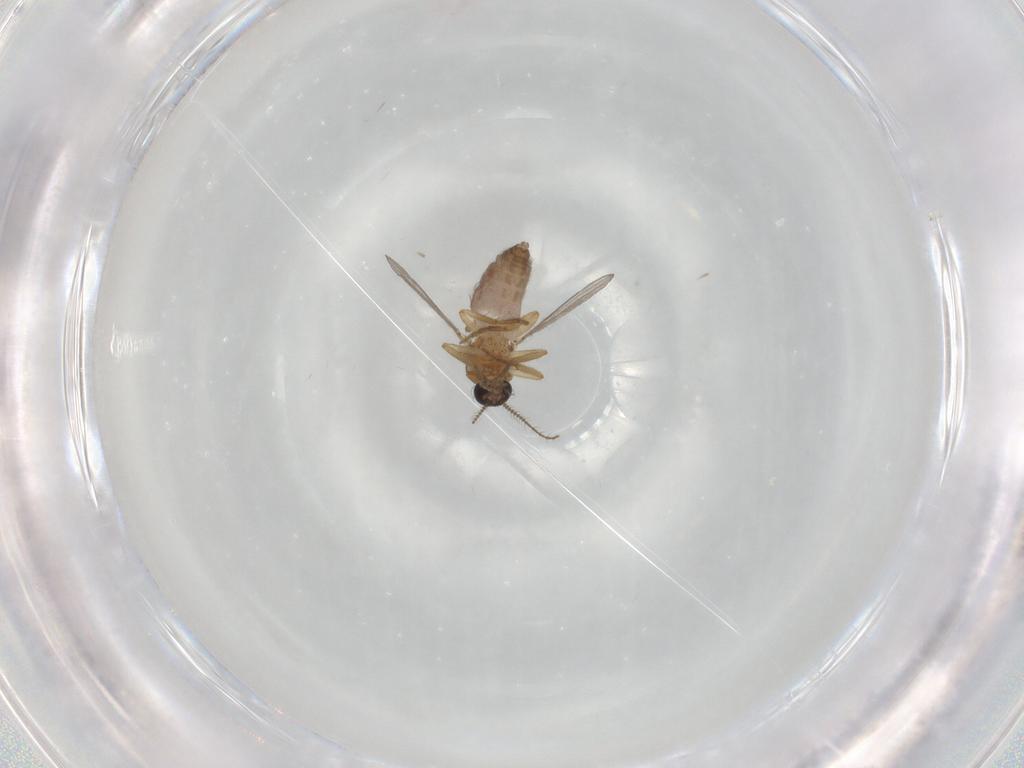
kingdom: Animalia
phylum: Arthropoda
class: Insecta
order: Diptera
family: Ceratopogonidae
